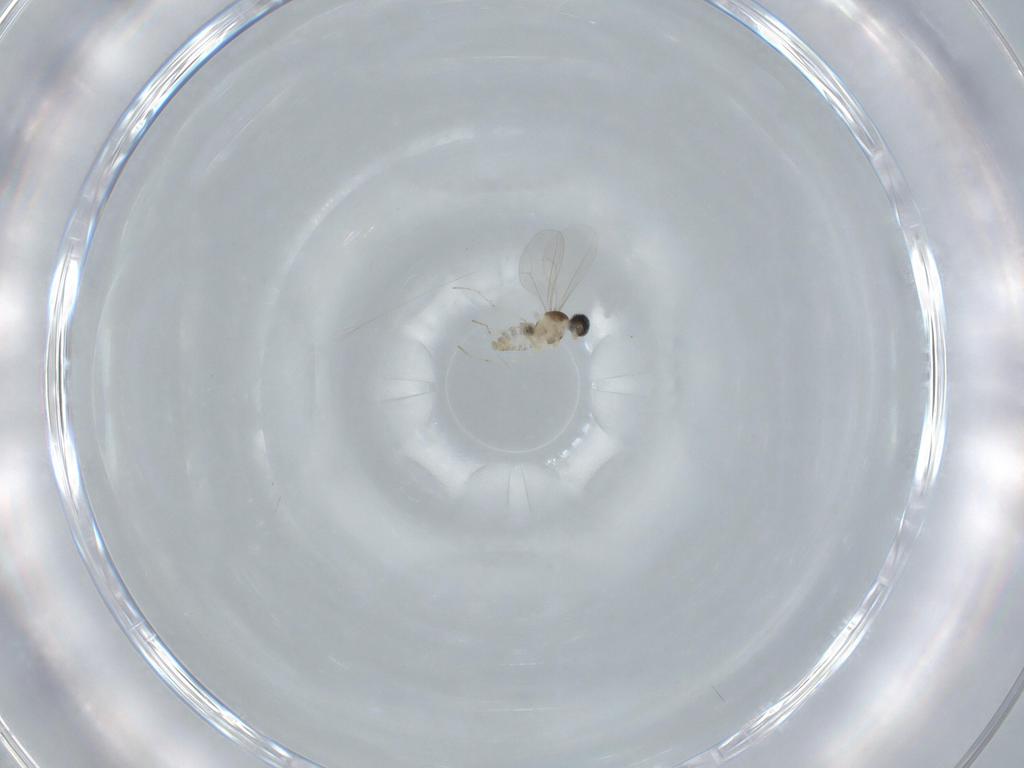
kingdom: Animalia
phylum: Arthropoda
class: Insecta
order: Diptera
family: Cecidomyiidae
